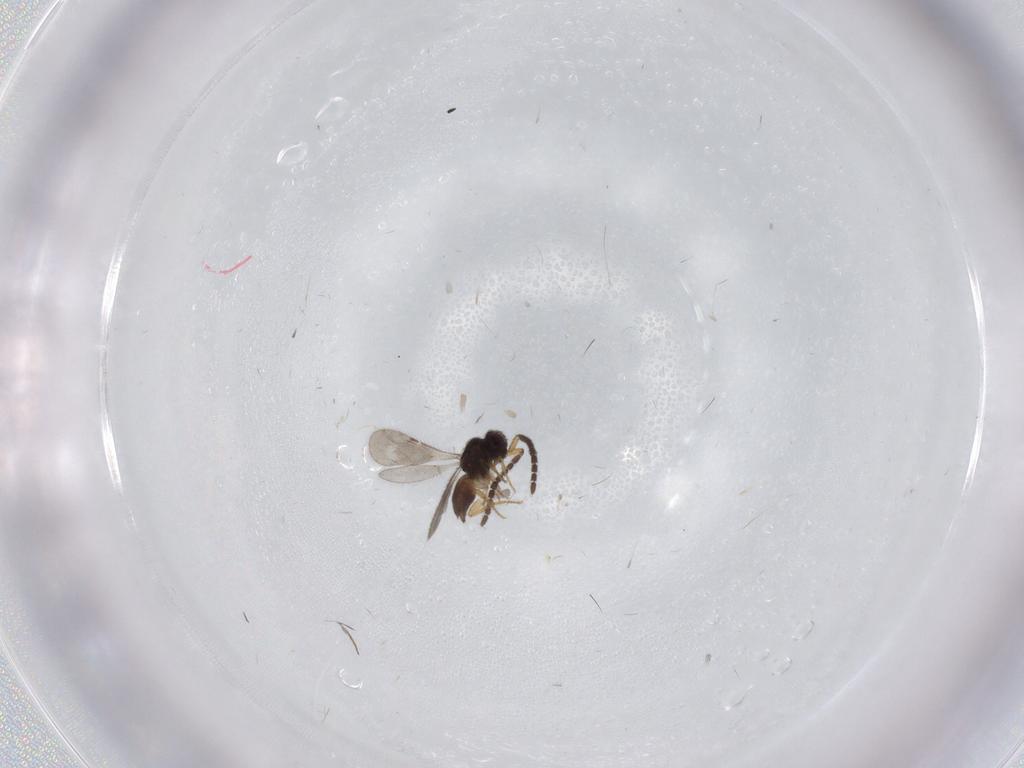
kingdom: Animalia
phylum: Arthropoda
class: Insecta
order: Hymenoptera
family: Ceraphronidae
